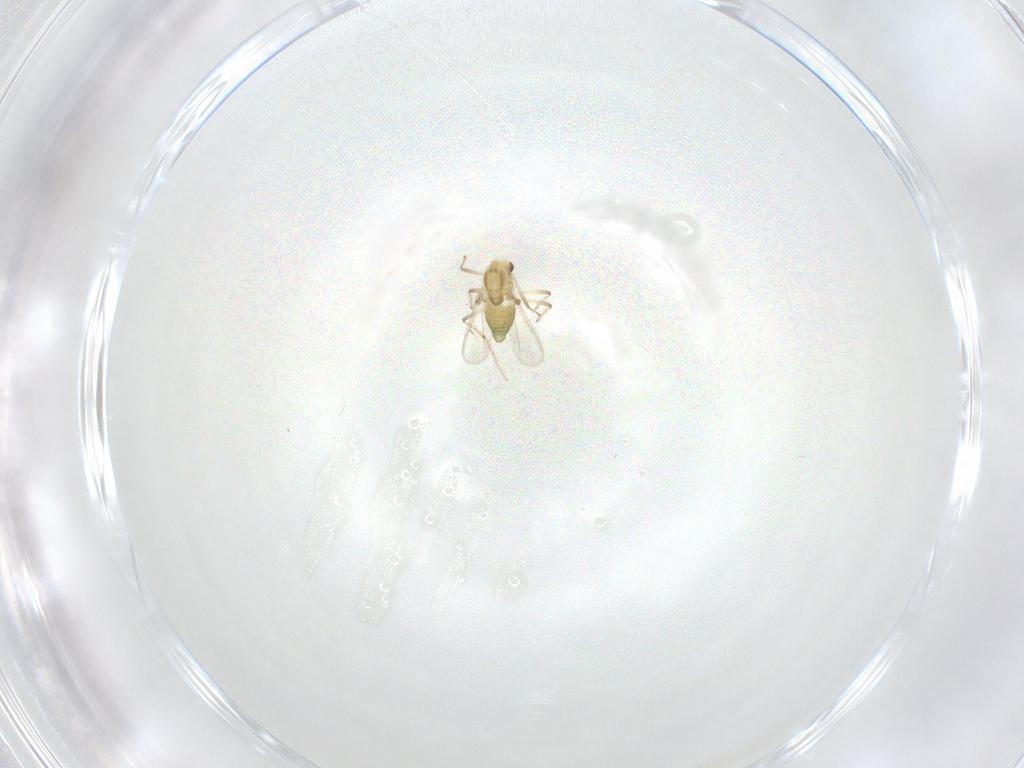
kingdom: Animalia
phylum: Arthropoda
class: Insecta
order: Diptera
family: Chironomidae
